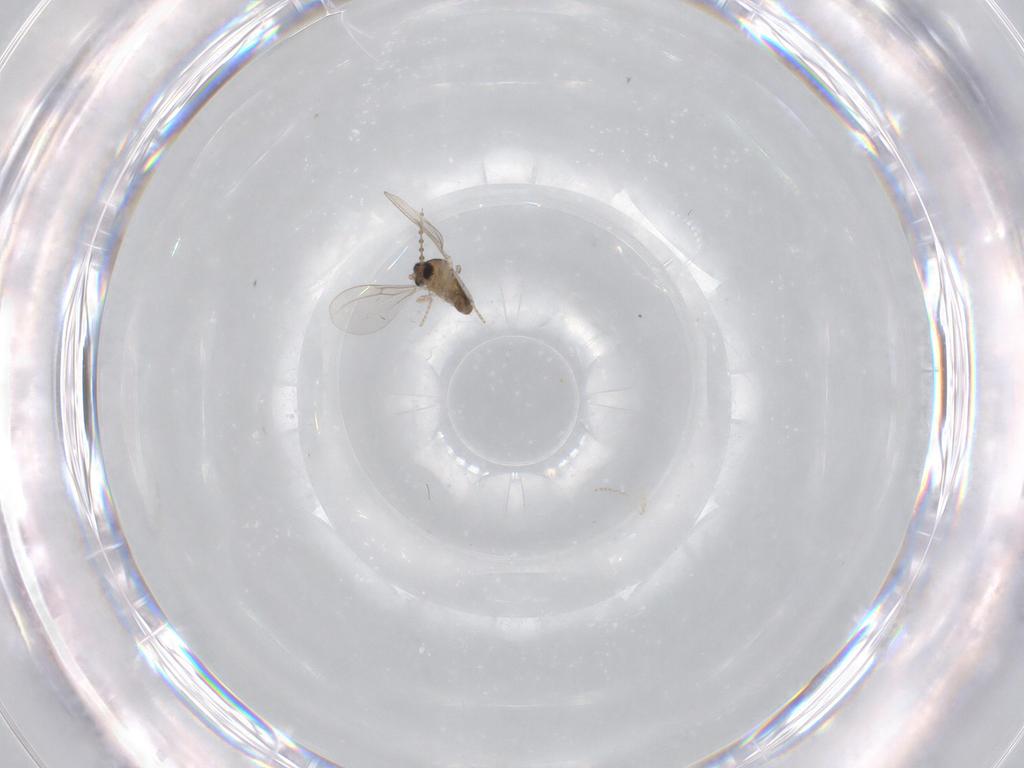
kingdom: Animalia
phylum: Arthropoda
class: Insecta
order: Diptera
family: Cecidomyiidae
